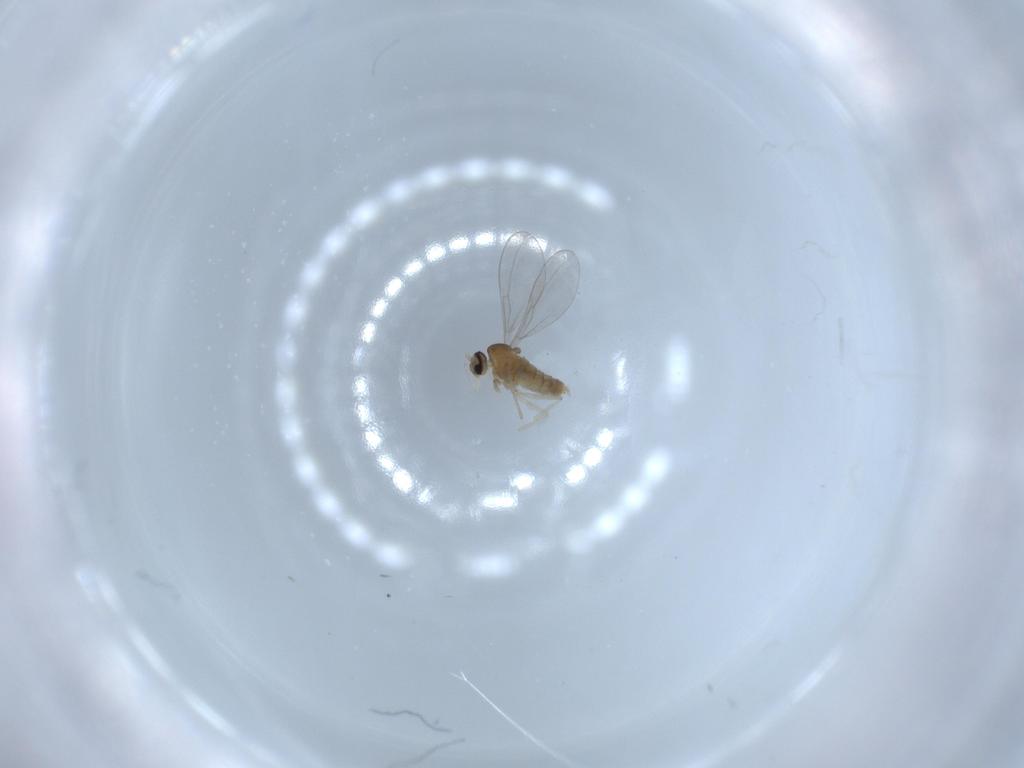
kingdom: Animalia
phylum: Arthropoda
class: Insecta
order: Diptera
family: Cecidomyiidae
